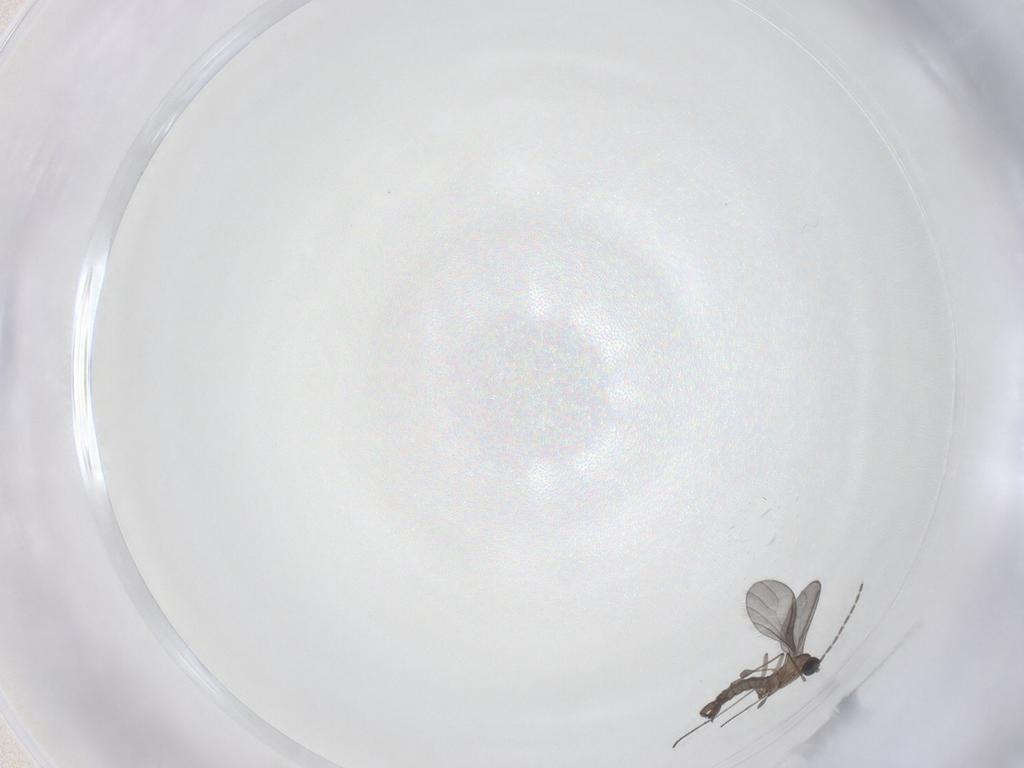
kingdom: Animalia
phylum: Arthropoda
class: Insecta
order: Diptera
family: Sciaridae
